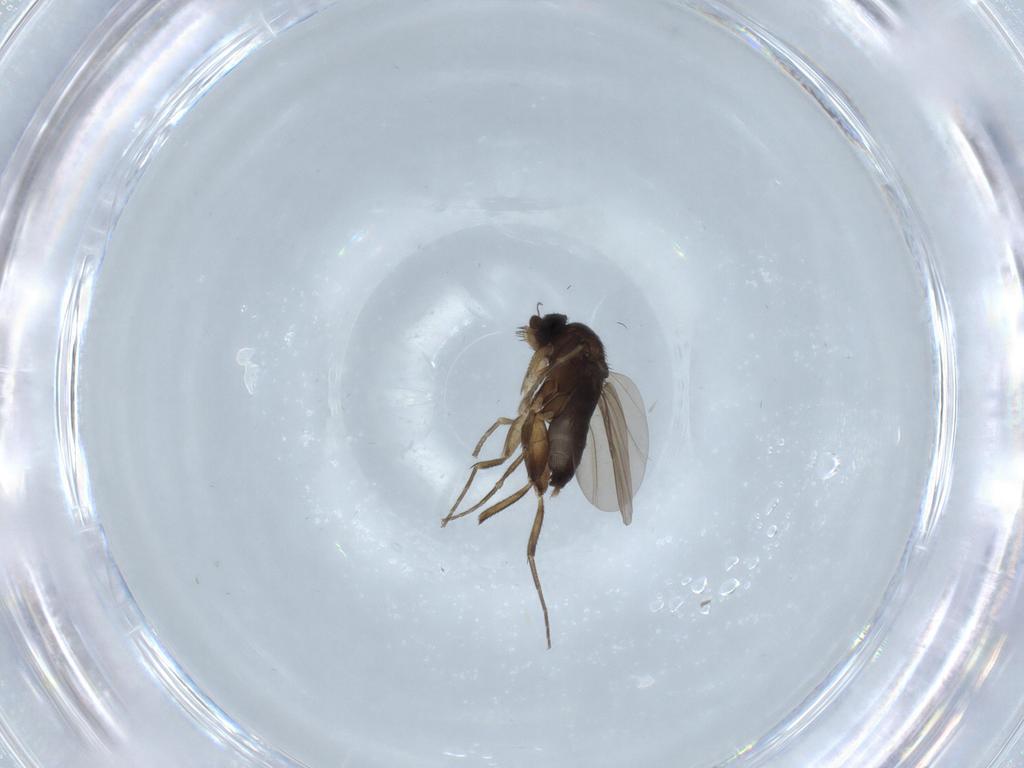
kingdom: Animalia
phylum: Arthropoda
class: Insecta
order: Diptera
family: Phoridae
